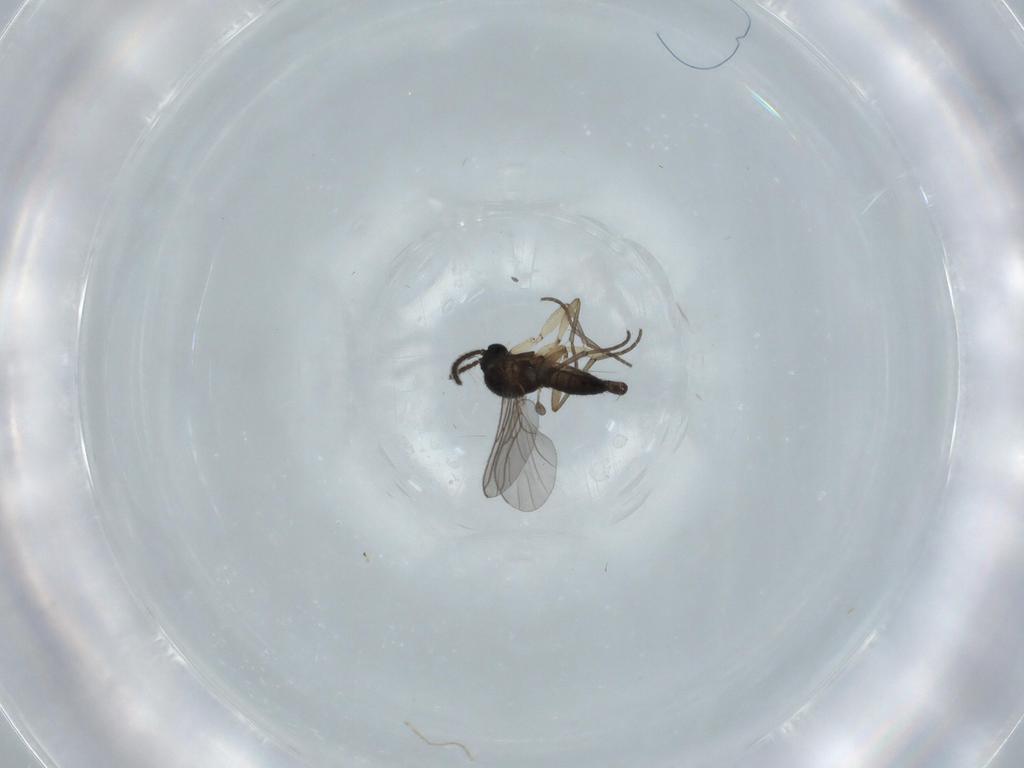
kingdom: Animalia
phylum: Arthropoda
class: Insecta
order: Diptera
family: Sciaridae
